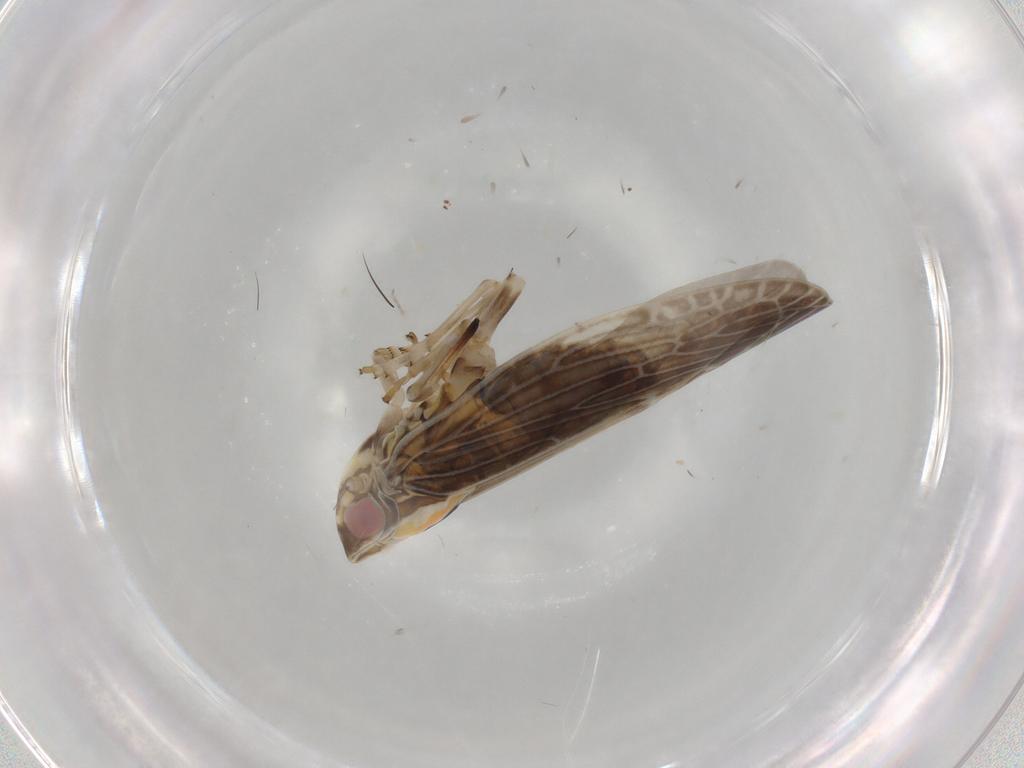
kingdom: Animalia
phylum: Arthropoda
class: Insecta
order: Hemiptera
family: Achilidae
